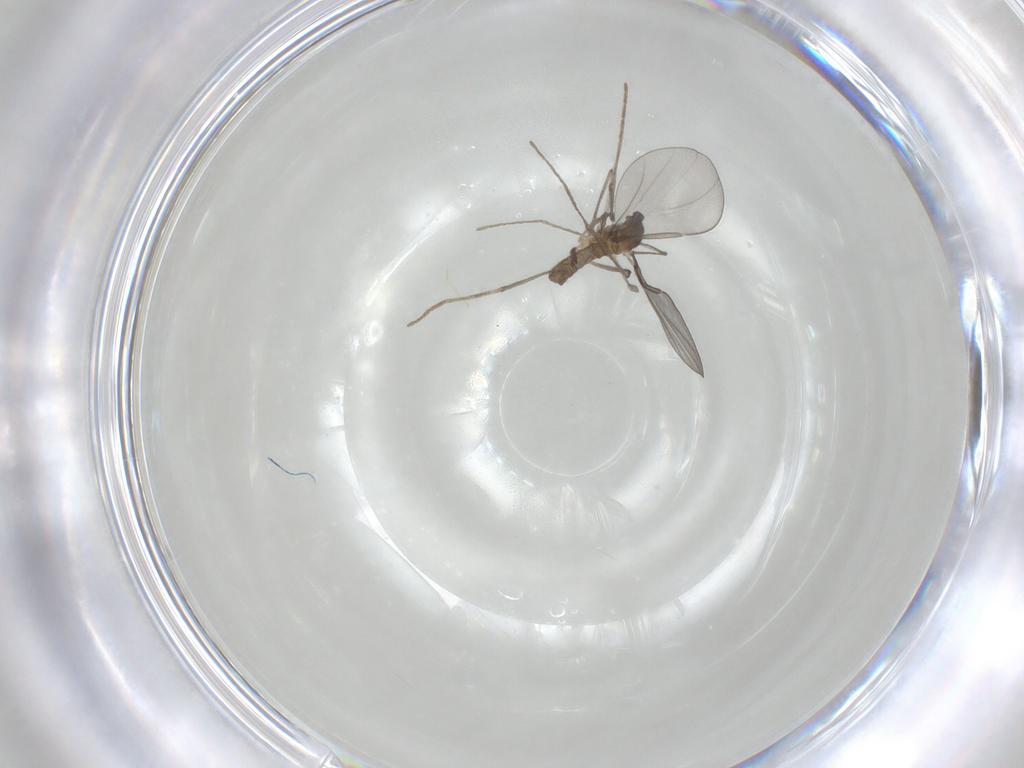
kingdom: Animalia
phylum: Arthropoda
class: Insecta
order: Diptera
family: Cecidomyiidae
